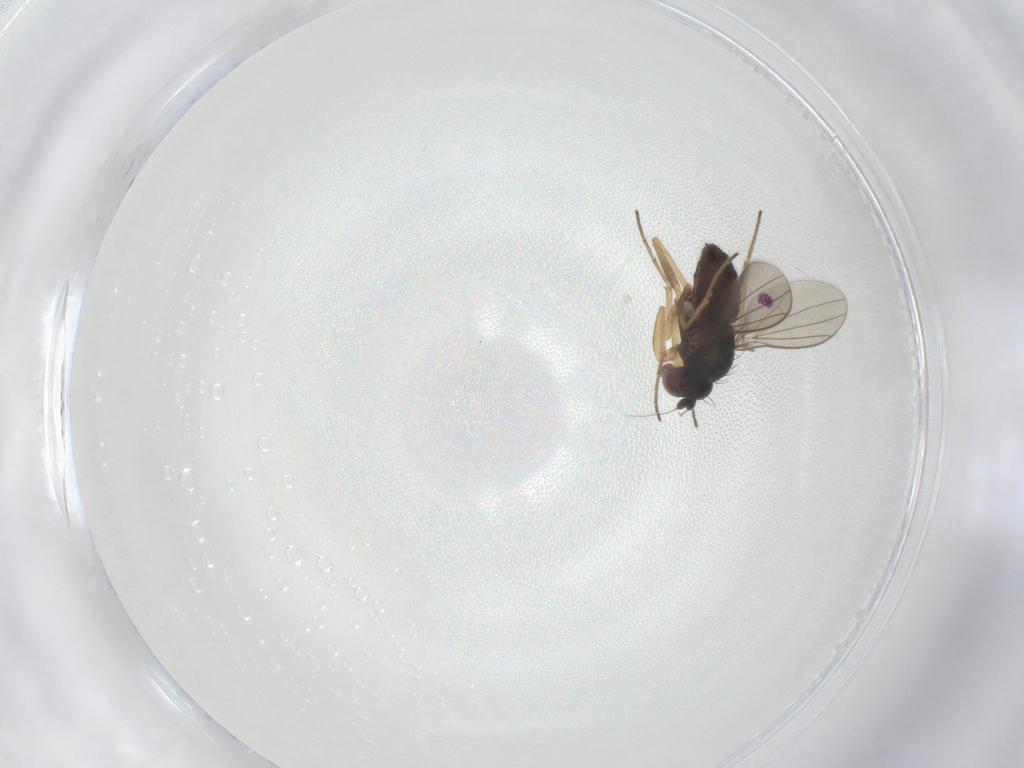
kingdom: Animalia
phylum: Arthropoda
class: Insecta
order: Diptera
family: Dolichopodidae
